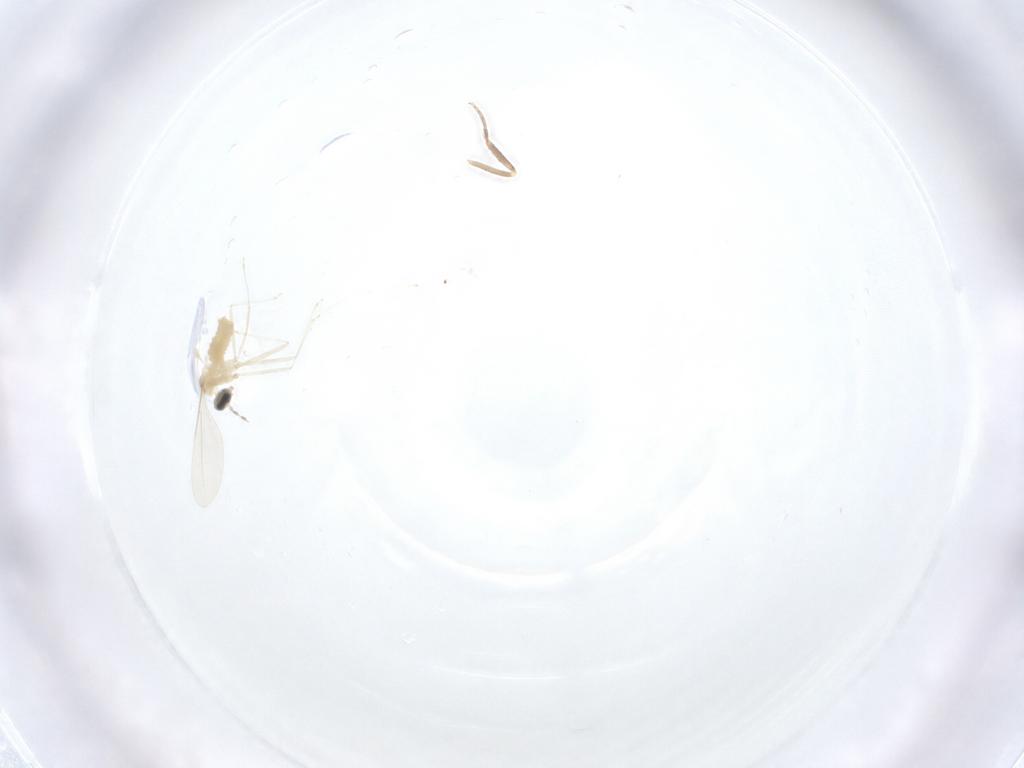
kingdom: Animalia
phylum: Arthropoda
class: Insecta
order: Diptera
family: Cecidomyiidae
